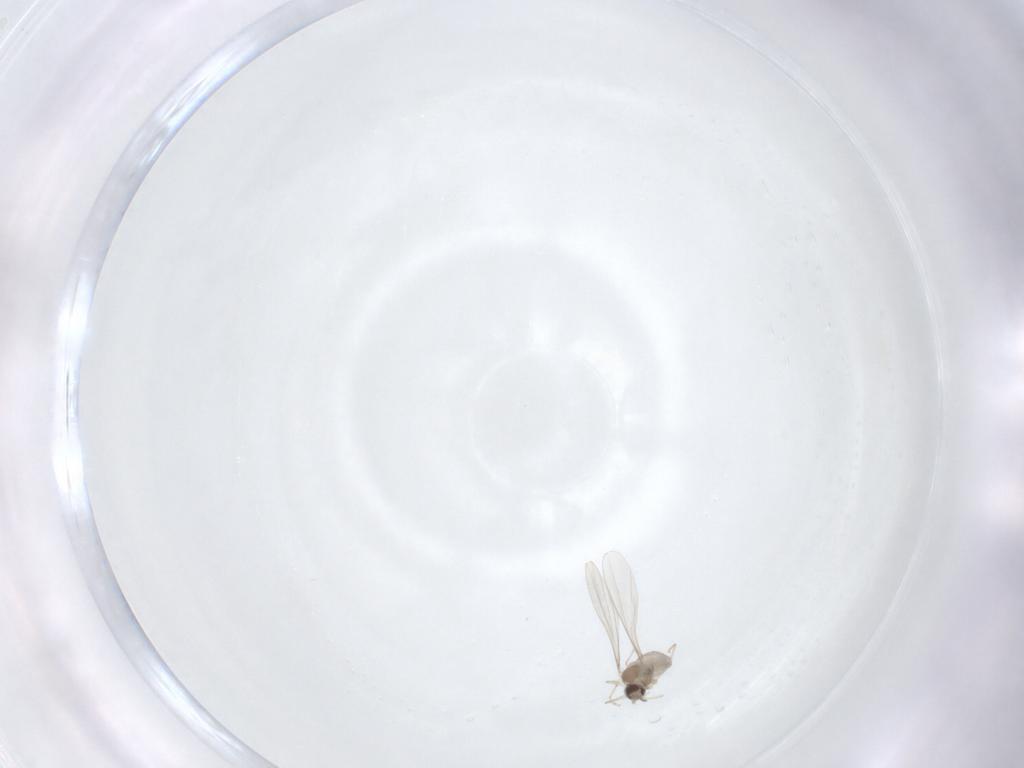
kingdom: Animalia
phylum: Arthropoda
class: Insecta
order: Diptera
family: Cecidomyiidae
